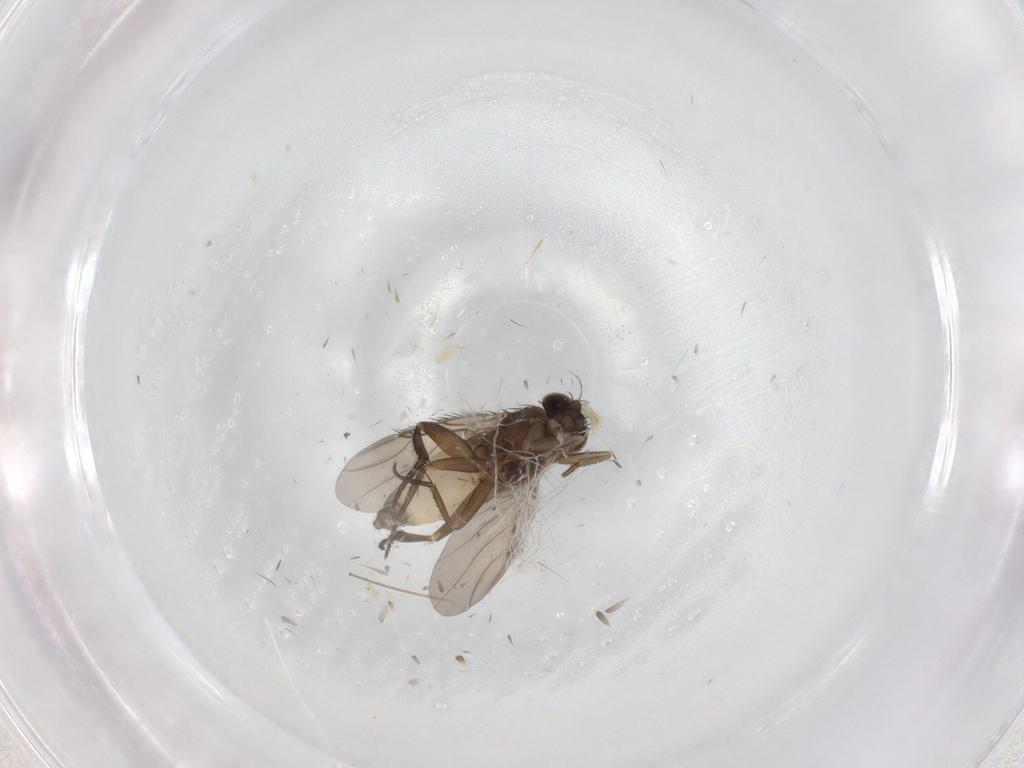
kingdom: Animalia
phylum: Arthropoda
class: Insecta
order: Diptera
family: Phoridae
